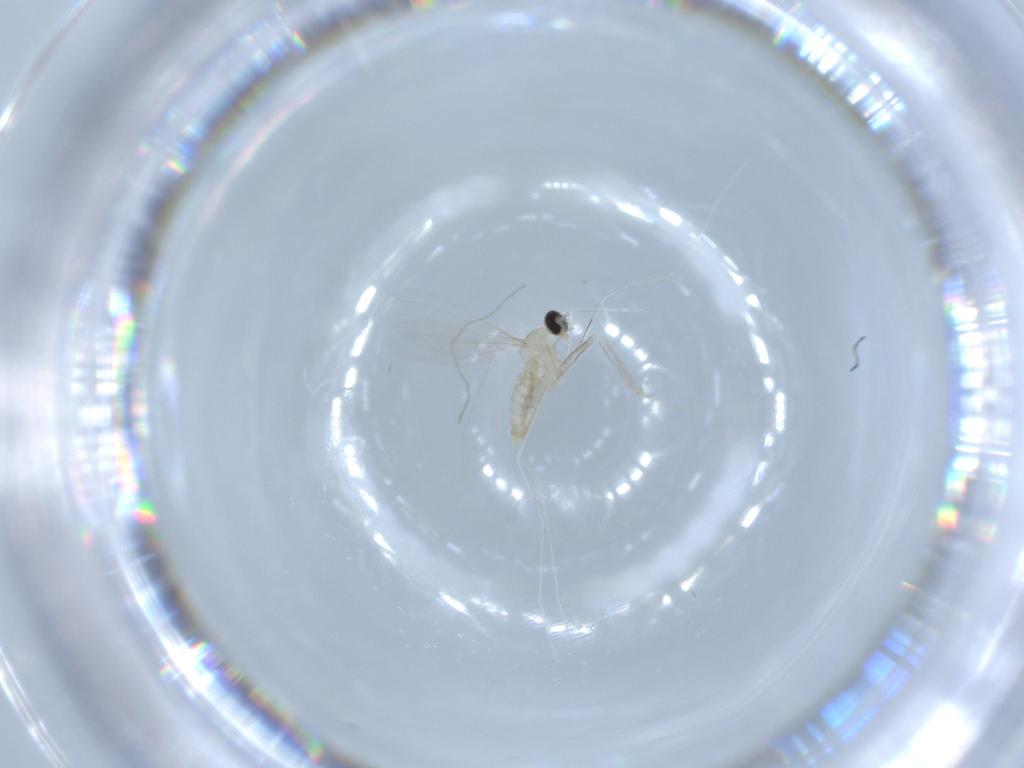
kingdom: Animalia
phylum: Arthropoda
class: Insecta
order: Diptera
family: Cecidomyiidae
